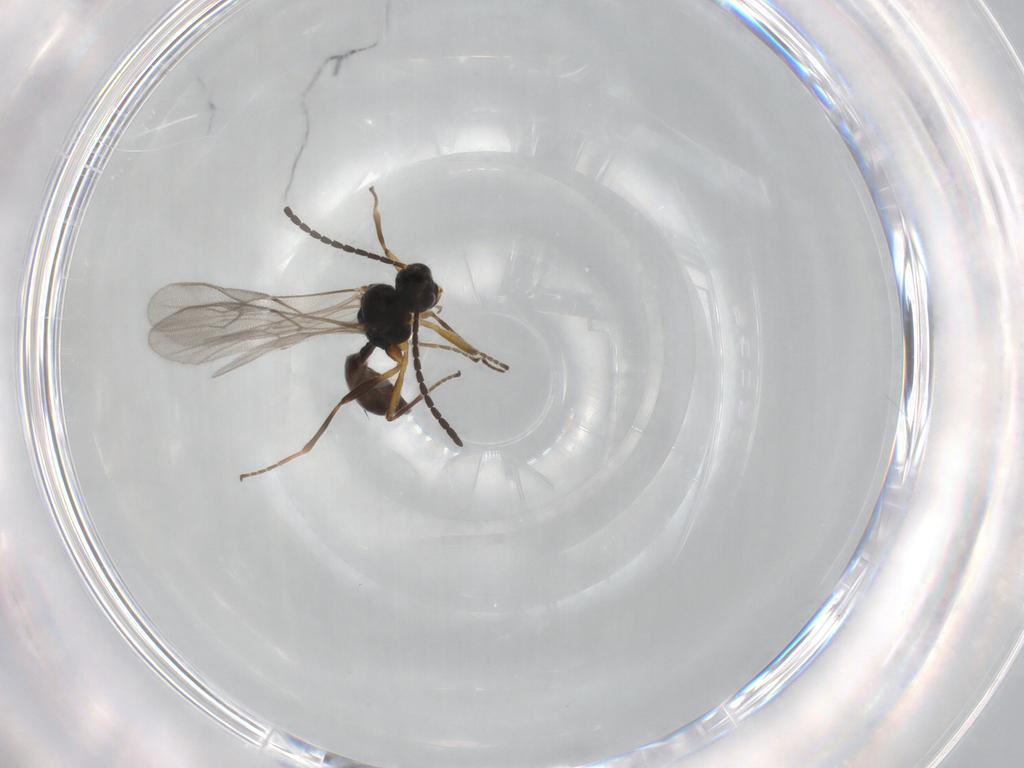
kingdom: Animalia
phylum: Arthropoda
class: Insecta
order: Hymenoptera
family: Braconidae
